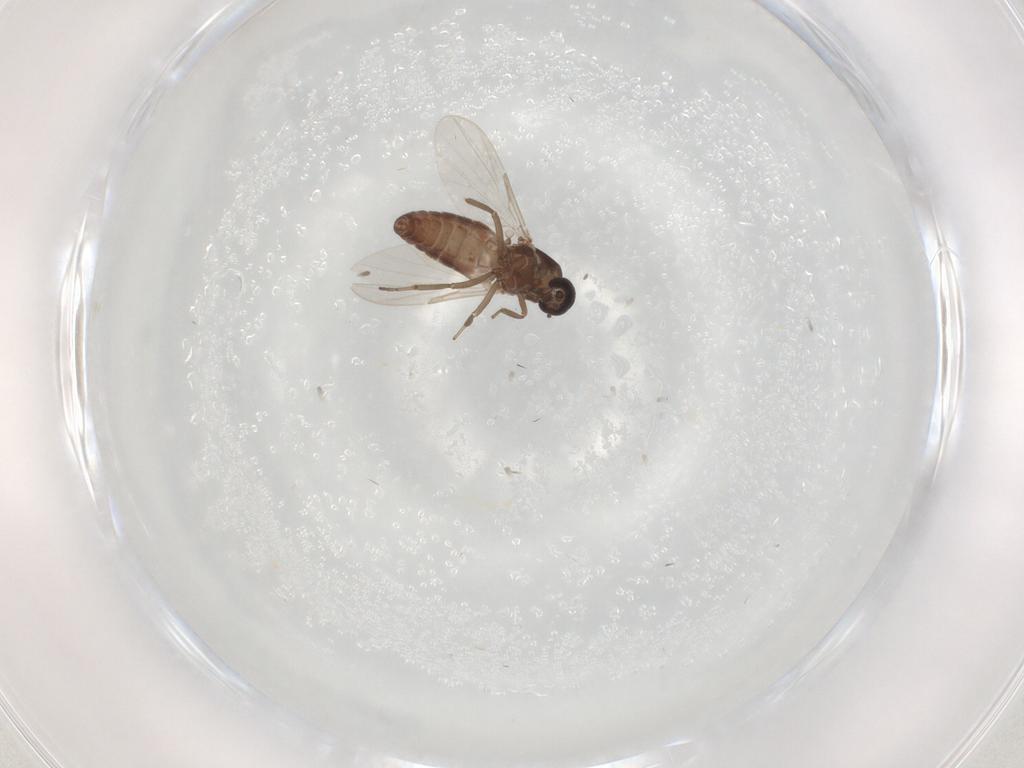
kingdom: Animalia
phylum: Arthropoda
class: Insecta
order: Diptera
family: Ceratopogonidae
